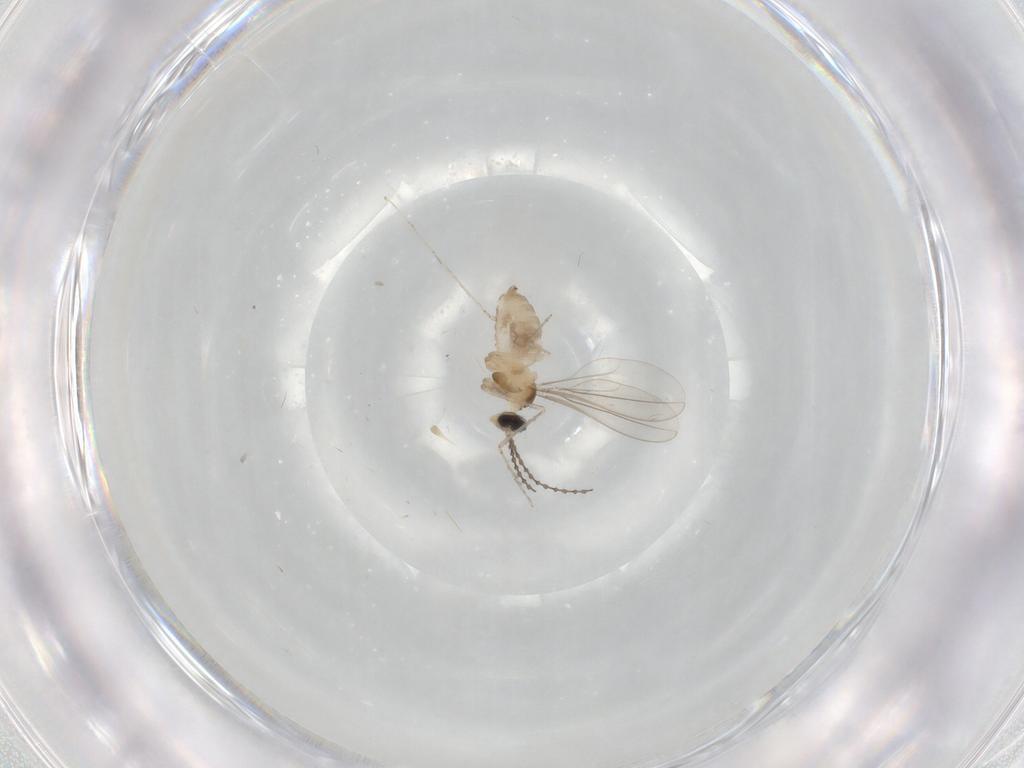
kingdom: Animalia
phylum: Arthropoda
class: Insecta
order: Diptera
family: Cecidomyiidae
